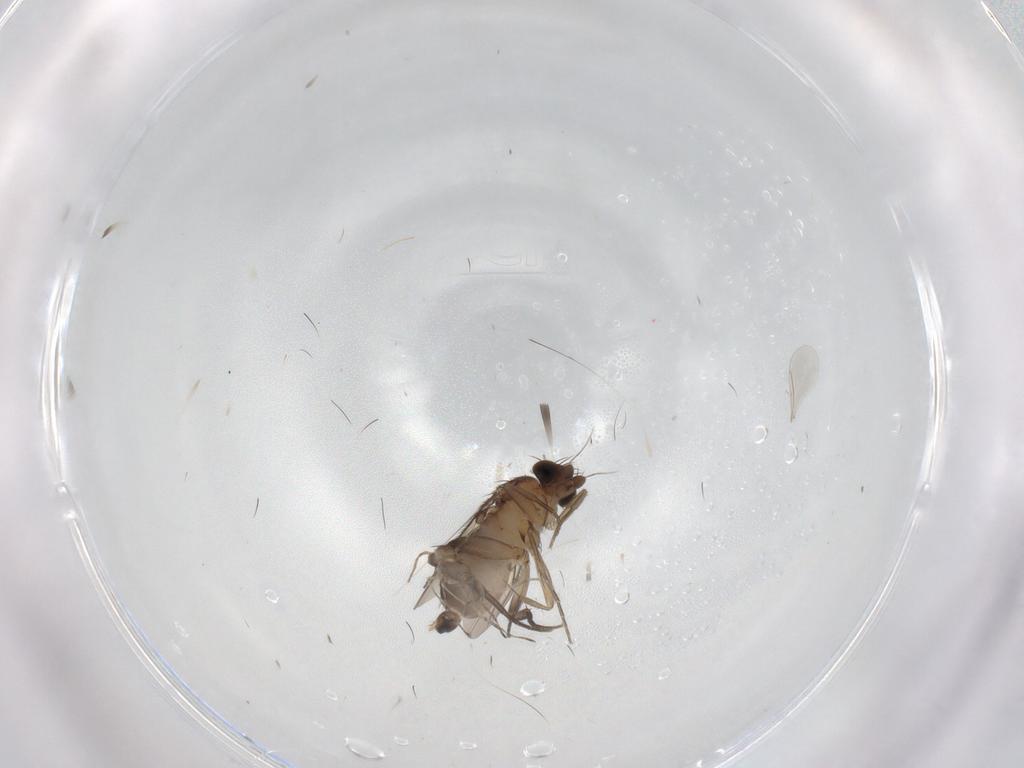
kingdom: Animalia
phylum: Arthropoda
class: Insecta
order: Diptera
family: Phoridae
